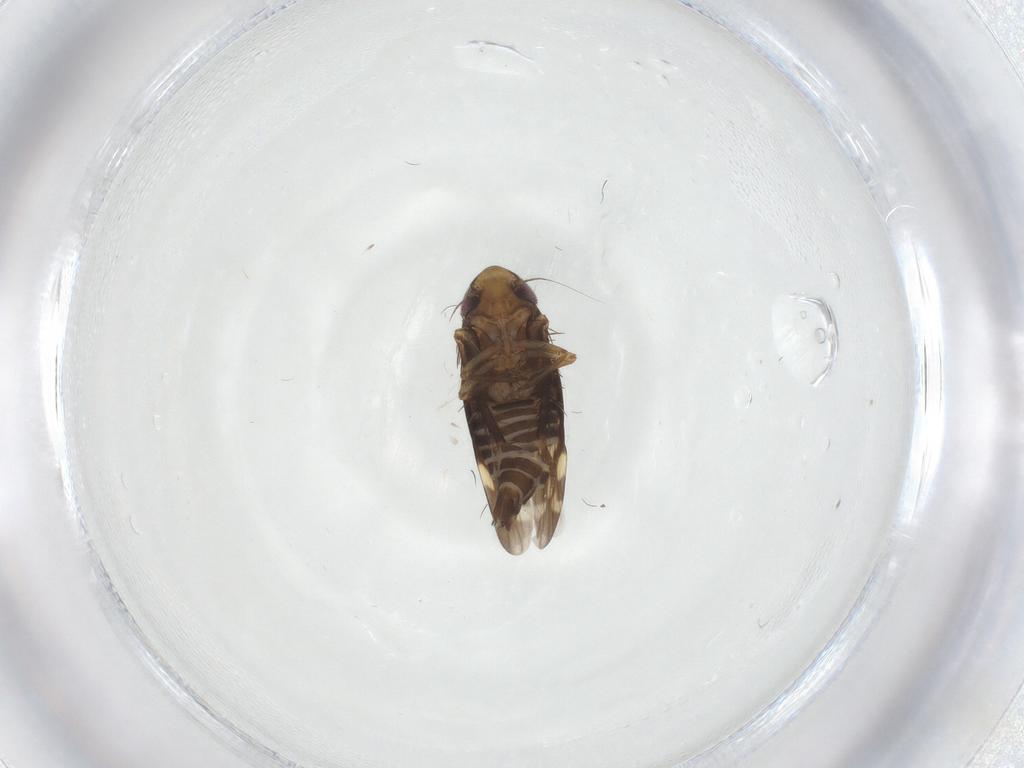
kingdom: Animalia
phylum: Arthropoda
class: Insecta
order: Hemiptera
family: Cicadellidae
